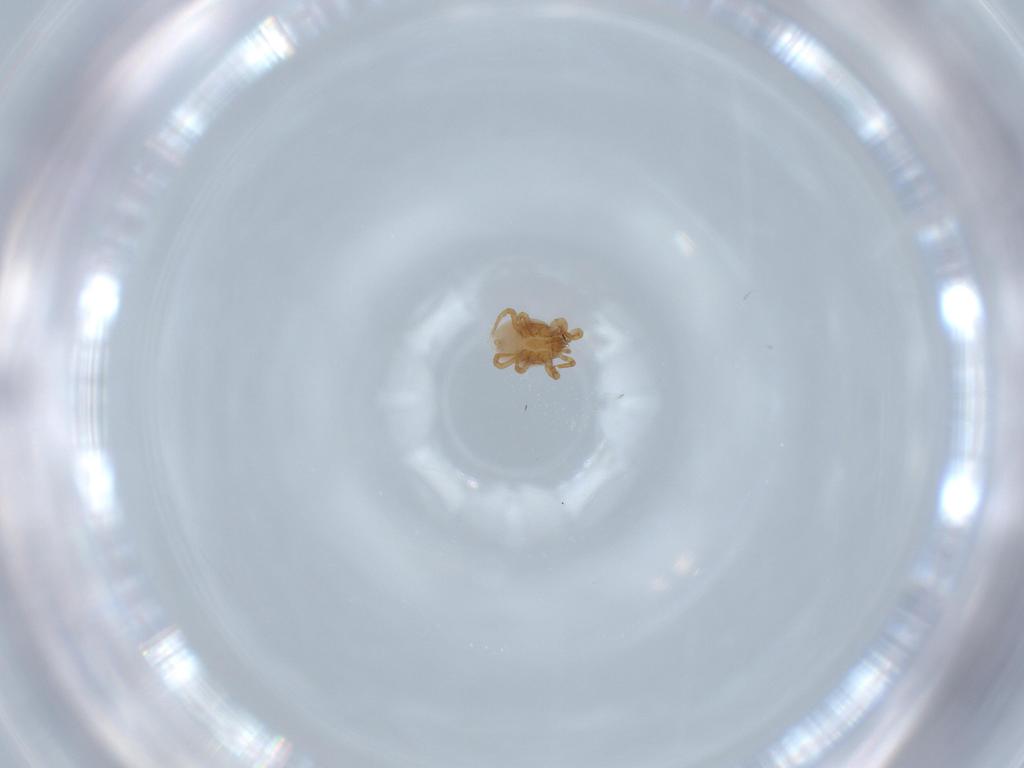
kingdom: Animalia
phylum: Arthropoda
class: Arachnida
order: Mesostigmata
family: Parasitidae
